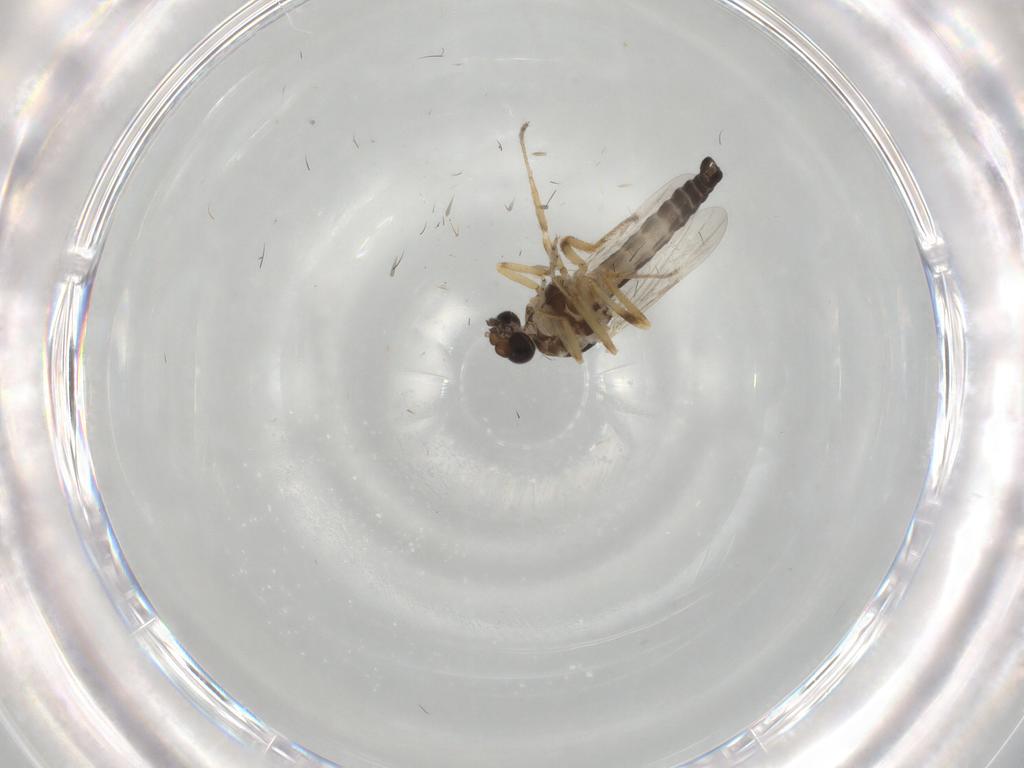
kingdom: Animalia
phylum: Arthropoda
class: Insecta
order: Diptera
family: Ceratopogonidae
